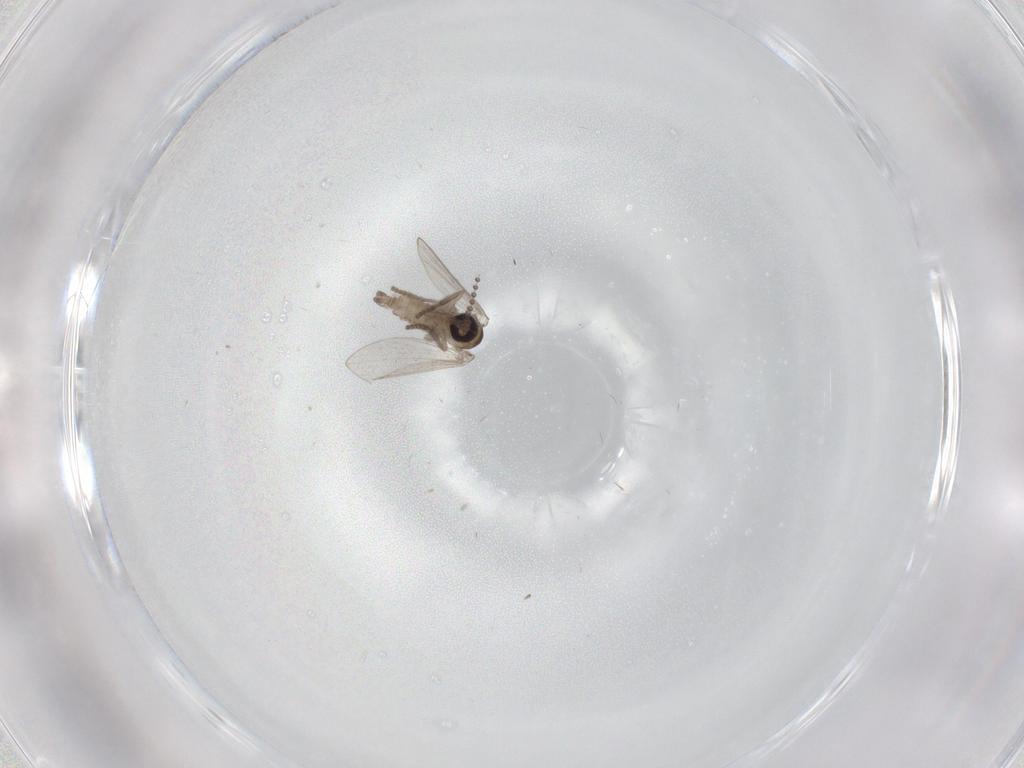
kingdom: Animalia
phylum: Arthropoda
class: Insecta
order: Diptera
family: Psychodidae
